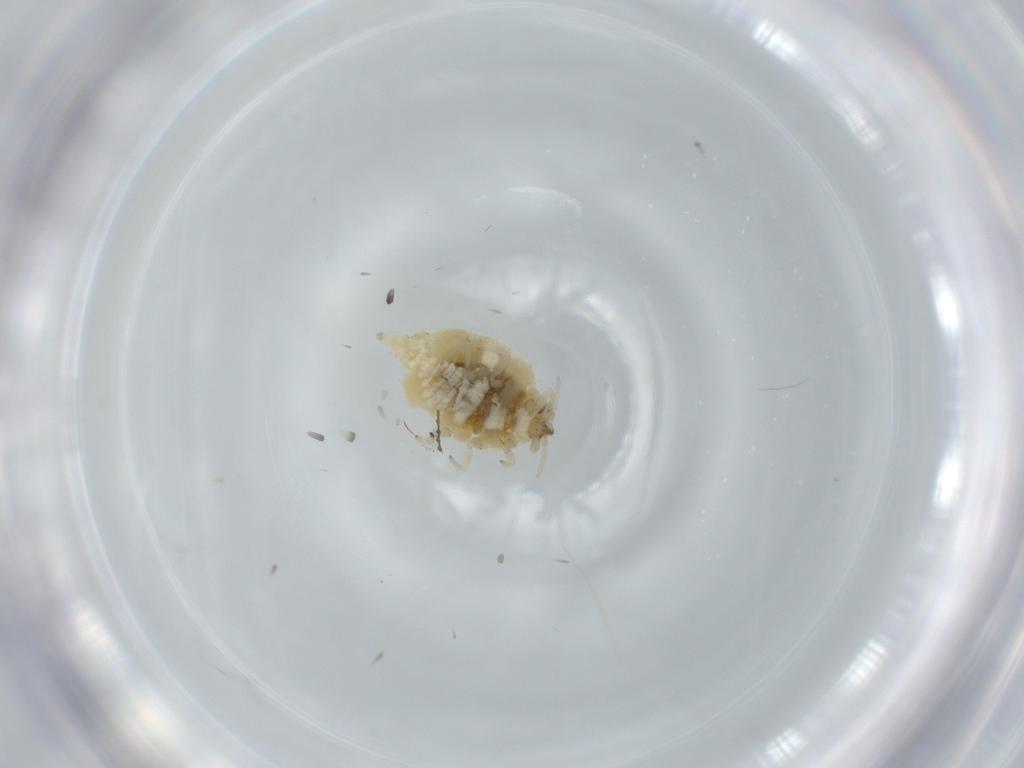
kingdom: Animalia
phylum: Arthropoda
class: Insecta
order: Neuroptera
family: Coniopterygidae
